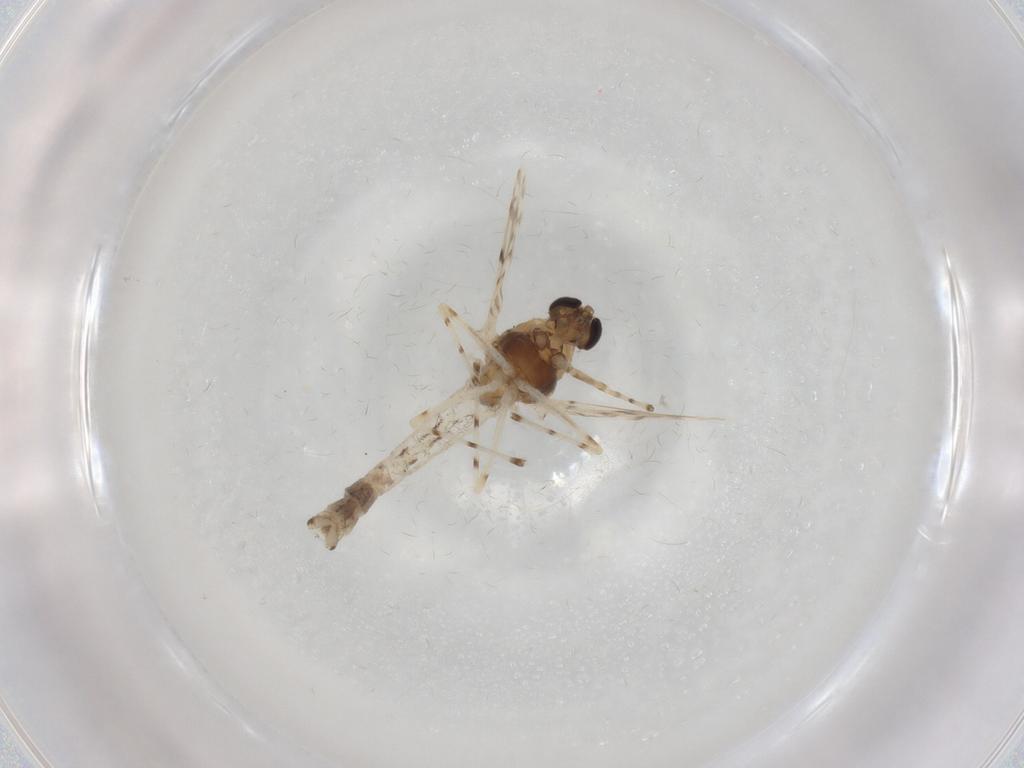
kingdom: Animalia
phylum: Arthropoda
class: Insecta
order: Diptera
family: Chironomidae
